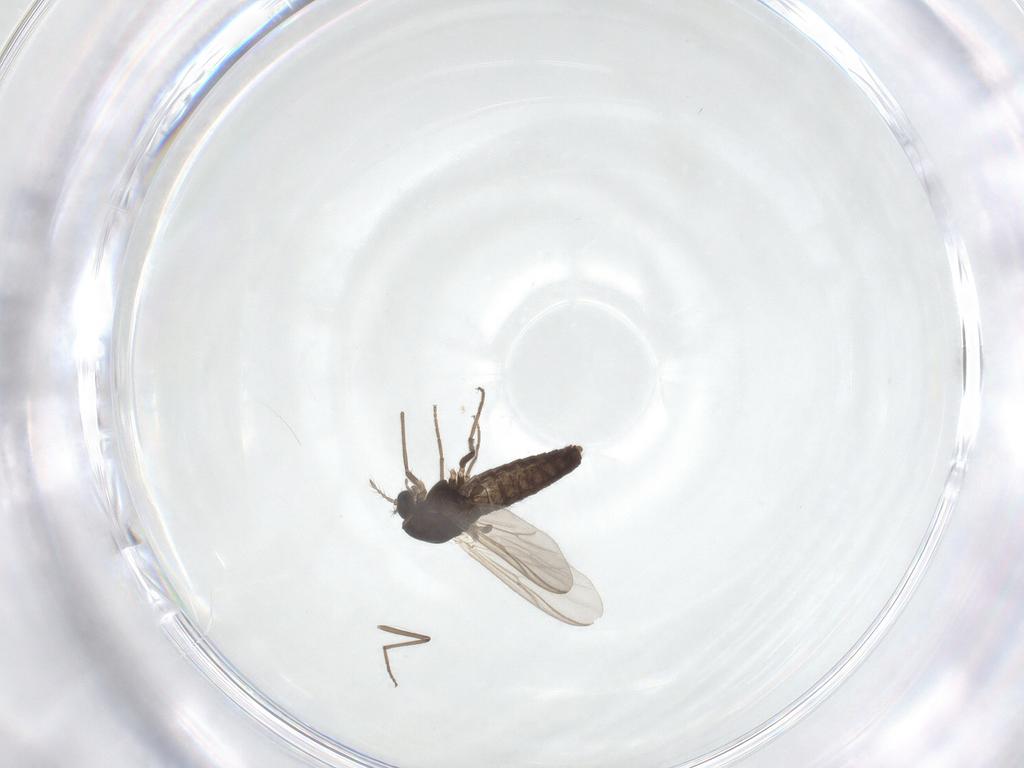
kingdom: Animalia
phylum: Arthropoda
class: Insecta
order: Diptera
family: Chironomidae
